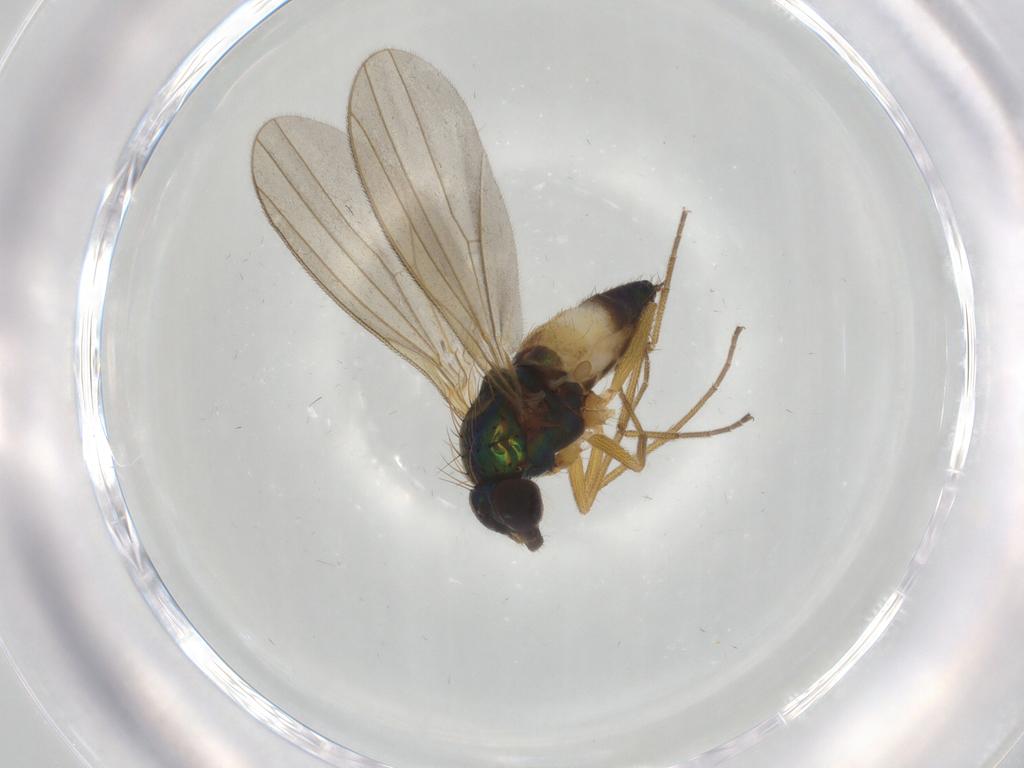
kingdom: Animalia
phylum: Arthropoda
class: Insecta
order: Diptera
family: Dolichopodidae
